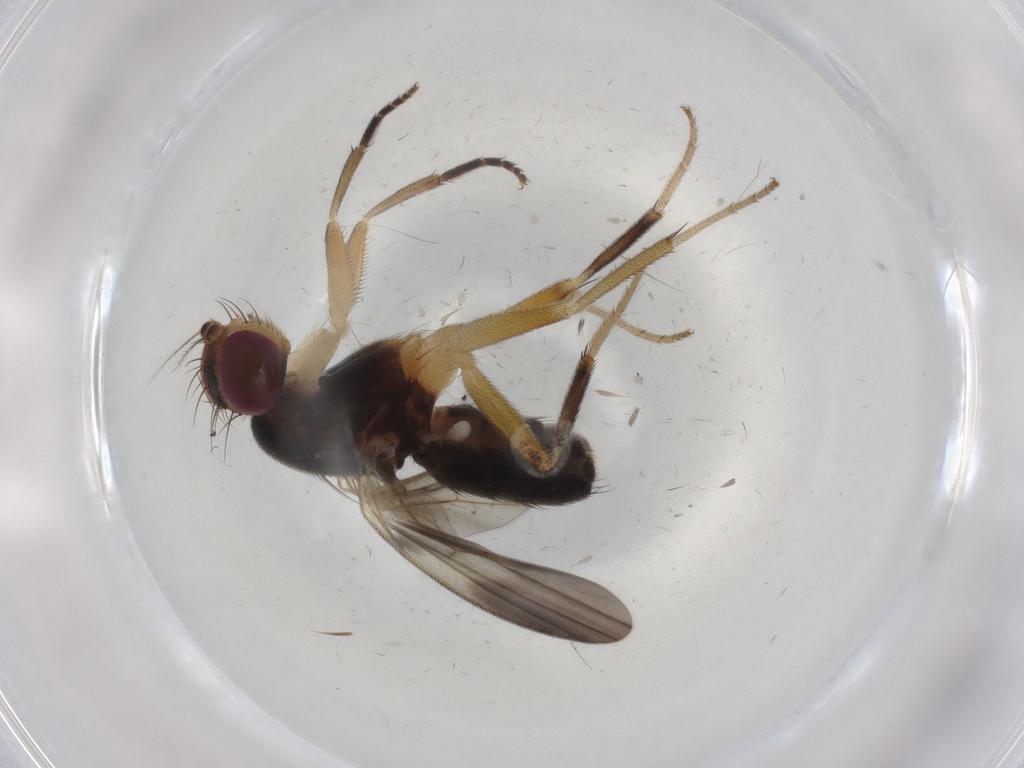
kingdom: Animalia
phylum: Arthropoda
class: Insecta
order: Diptera
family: Clusiidae
